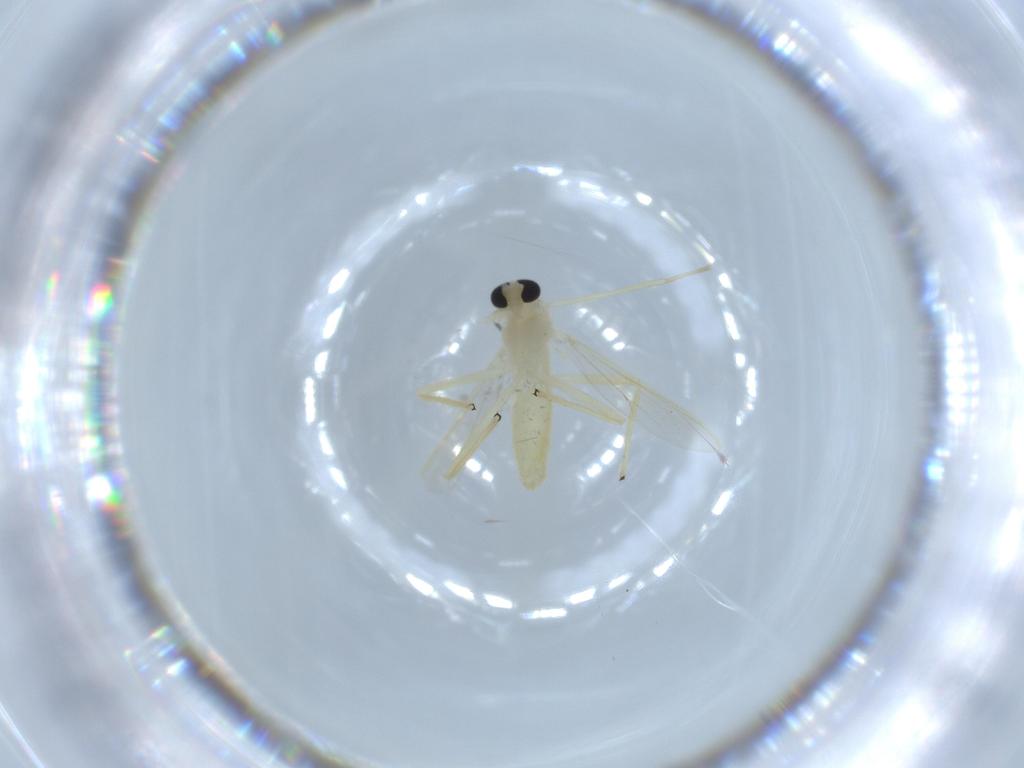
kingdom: Animalia
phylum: Arthropoda
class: Insecta
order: Diptera
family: Chironomidae
